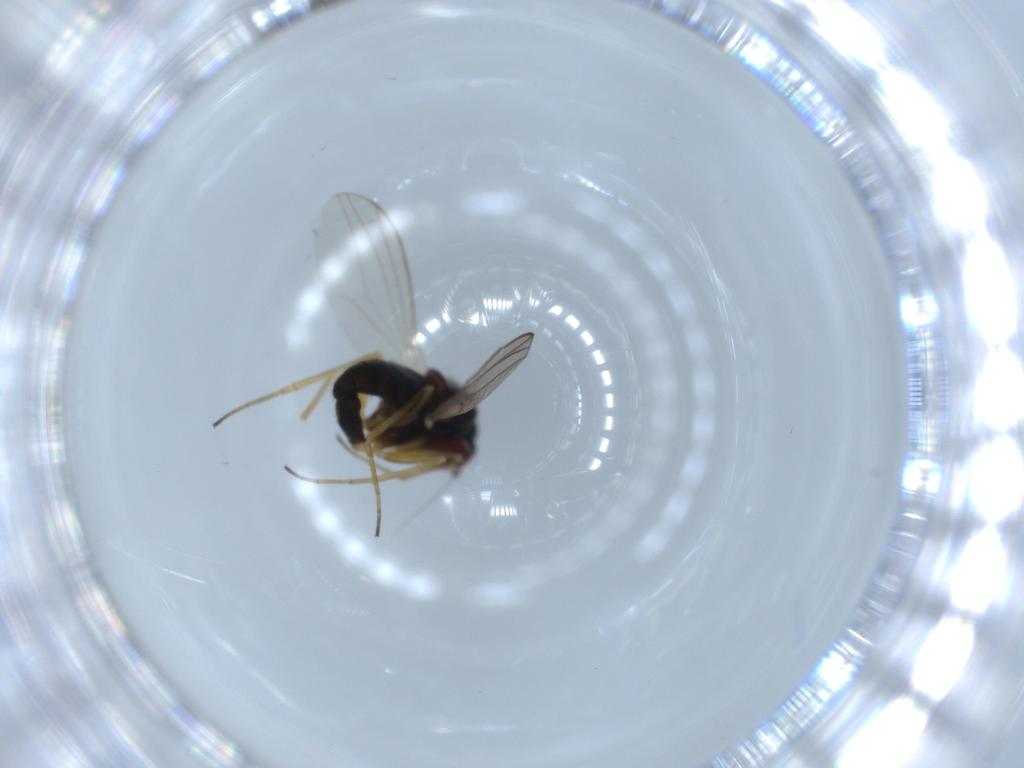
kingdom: Animalia
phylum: Arthropoda
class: Insecta
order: Diptera
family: Dolichopodidae
